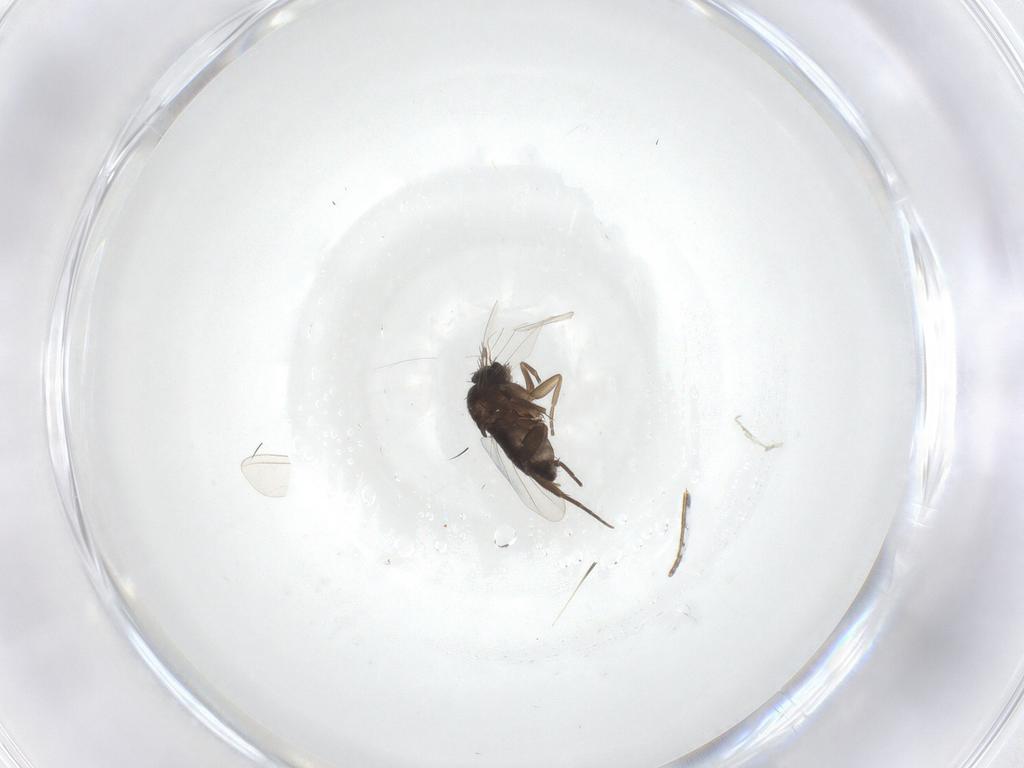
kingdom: Animalia
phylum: Arthropoda
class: Insecta
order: Diptera
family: Phoridae
